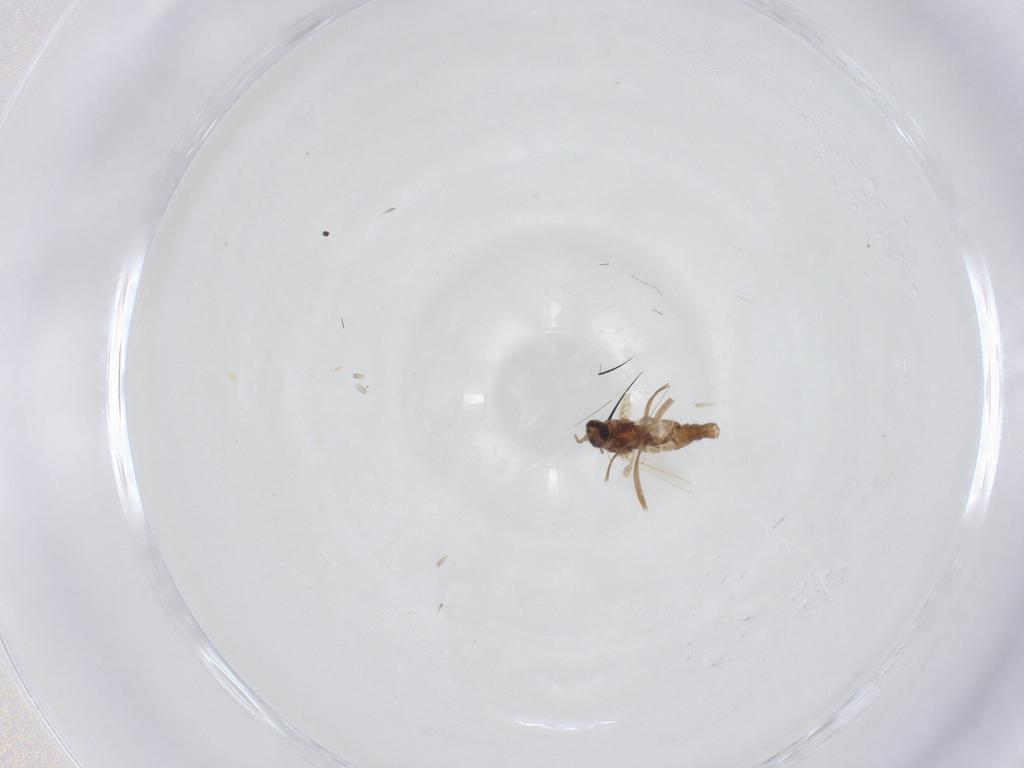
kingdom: Animalia
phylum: Arthropoda
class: Insecta
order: Diptera
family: Cecidomyiidae
